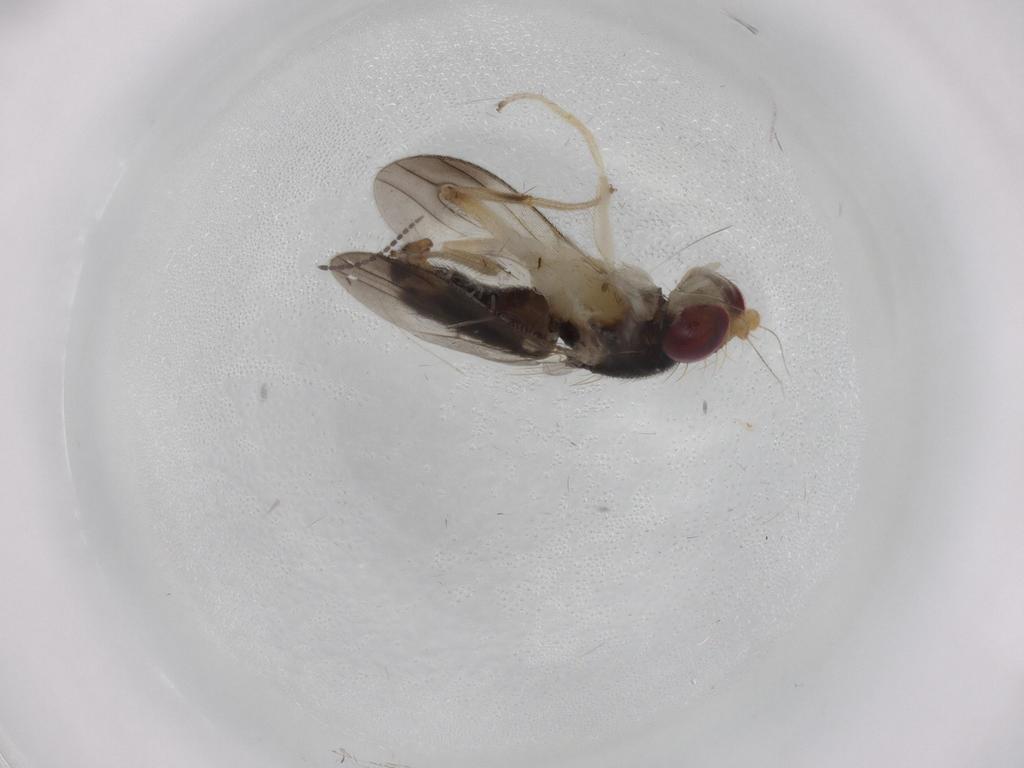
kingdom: Animalia
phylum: Arthropoda
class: Insecta
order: Diptera
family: Clusiidae
